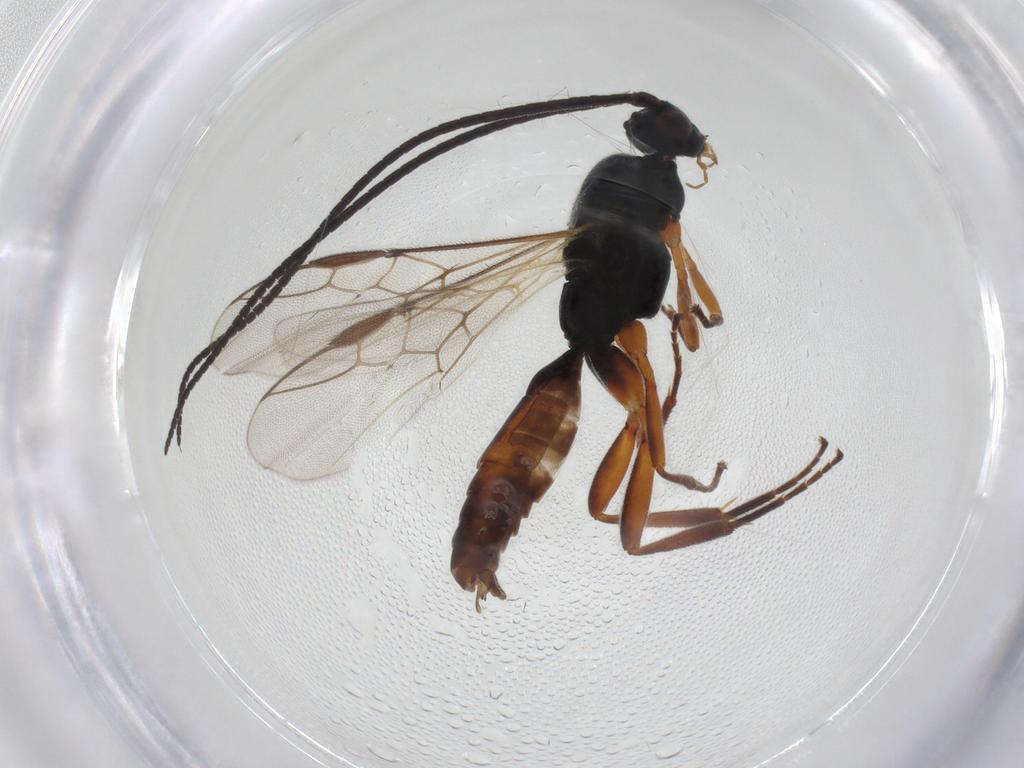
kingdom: Animalia
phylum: Arthropoda
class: Insecta
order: Hymenoptera
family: Braconidae
